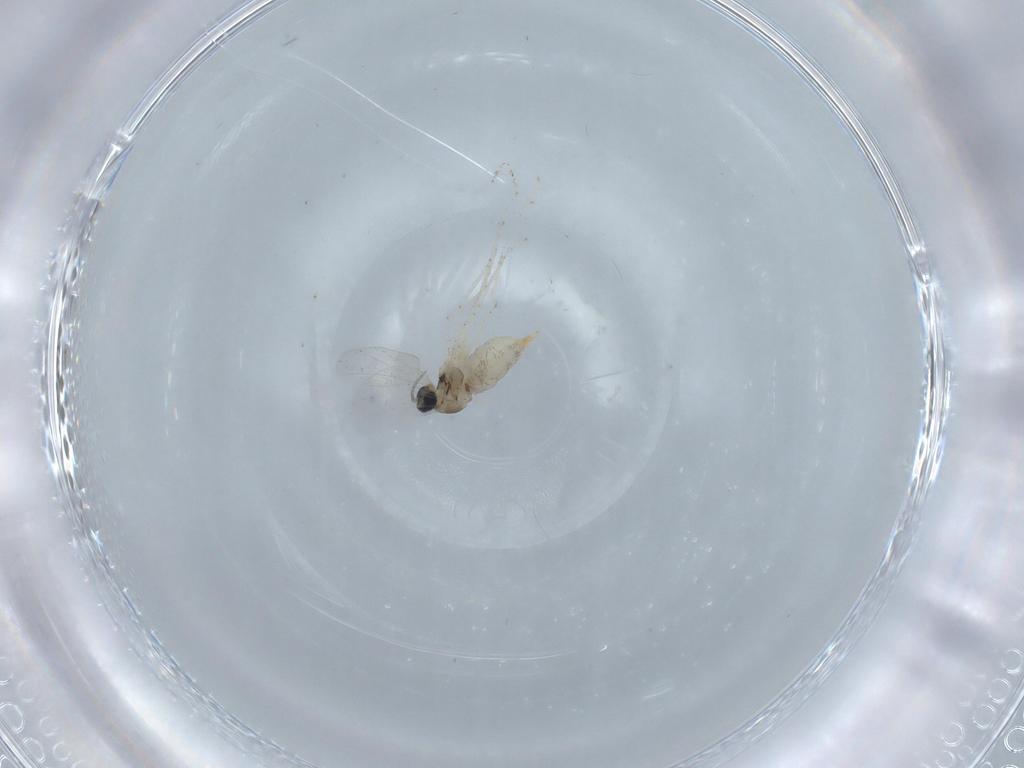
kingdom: Animalia
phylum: Arthropoda
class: Insecta
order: Diptera
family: Cecidomyiidae
